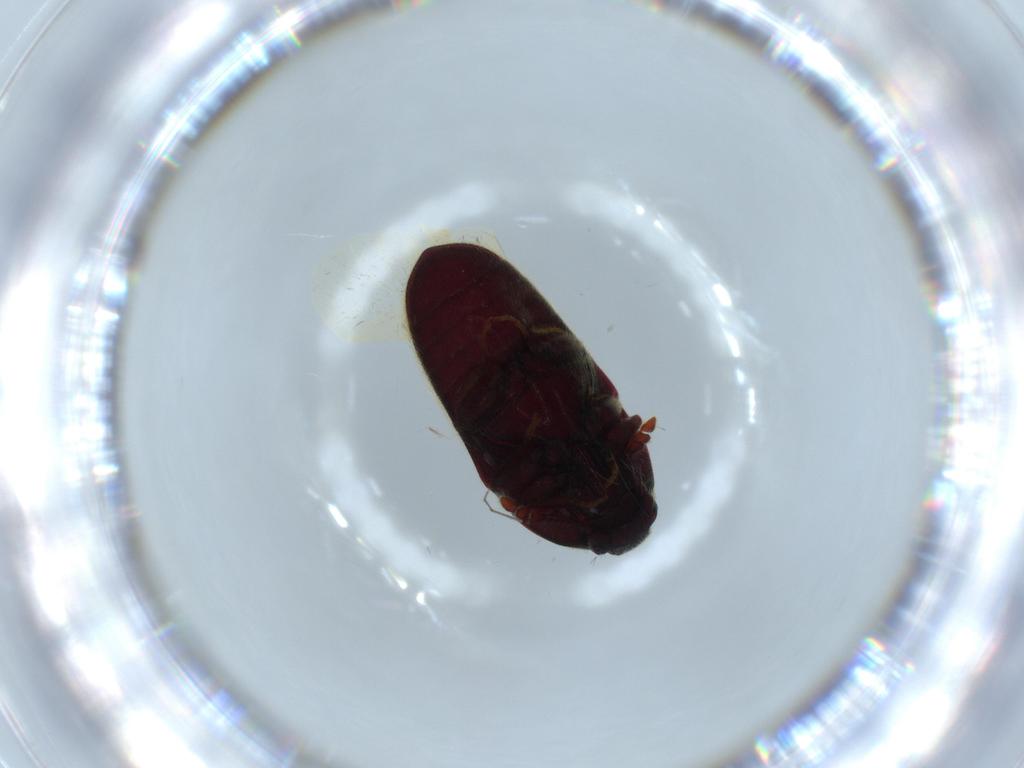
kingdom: Animalia
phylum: Arthropoda
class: Insecta
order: Coleoptera
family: Throscidae
